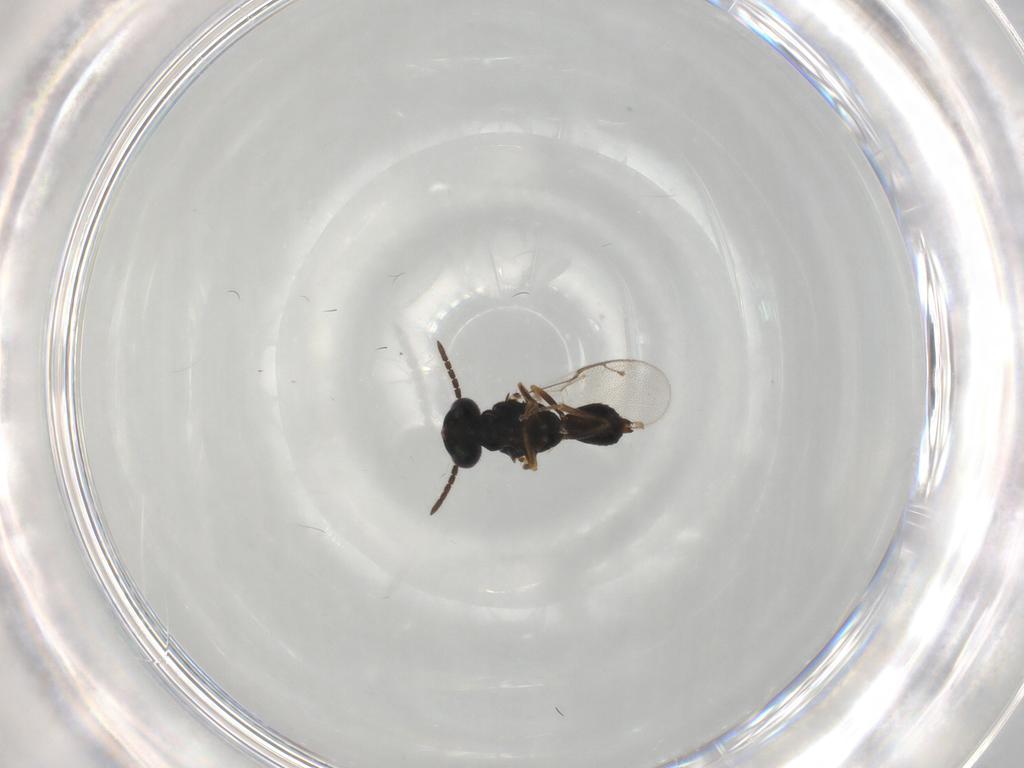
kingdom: Animalia
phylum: Arthropoda
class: Insecta
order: Hymenoptera
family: Pteromalidae
